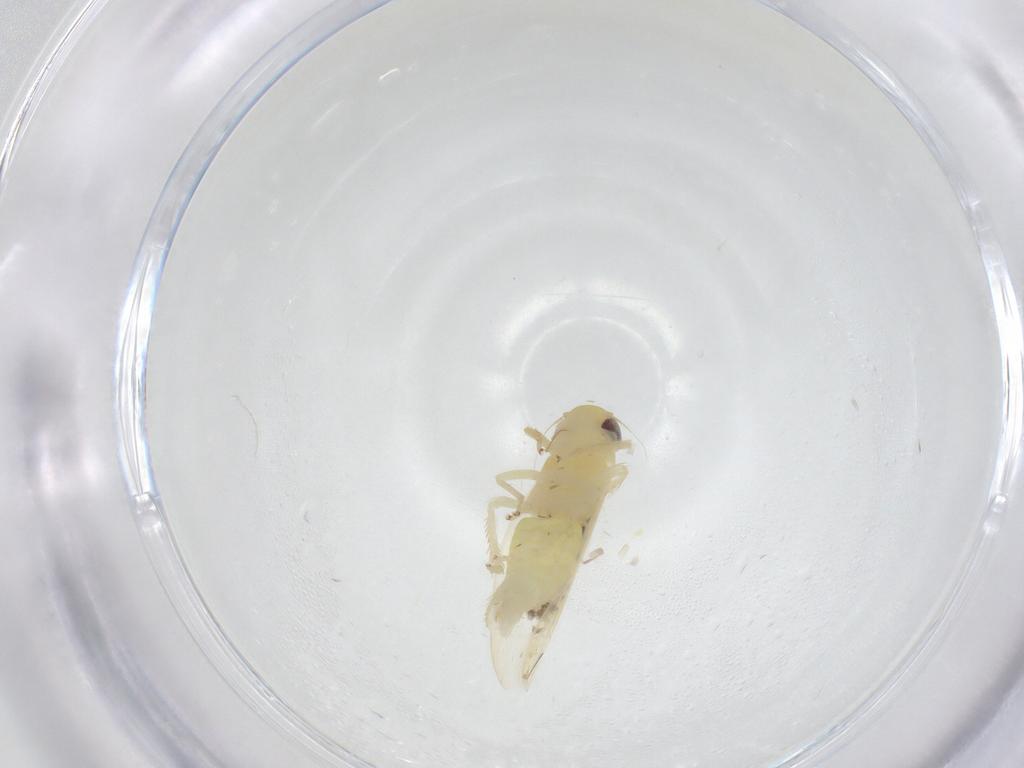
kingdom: Animalia
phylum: Arthropoda
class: Insecta
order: Hemiptera
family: Cicadellidae
